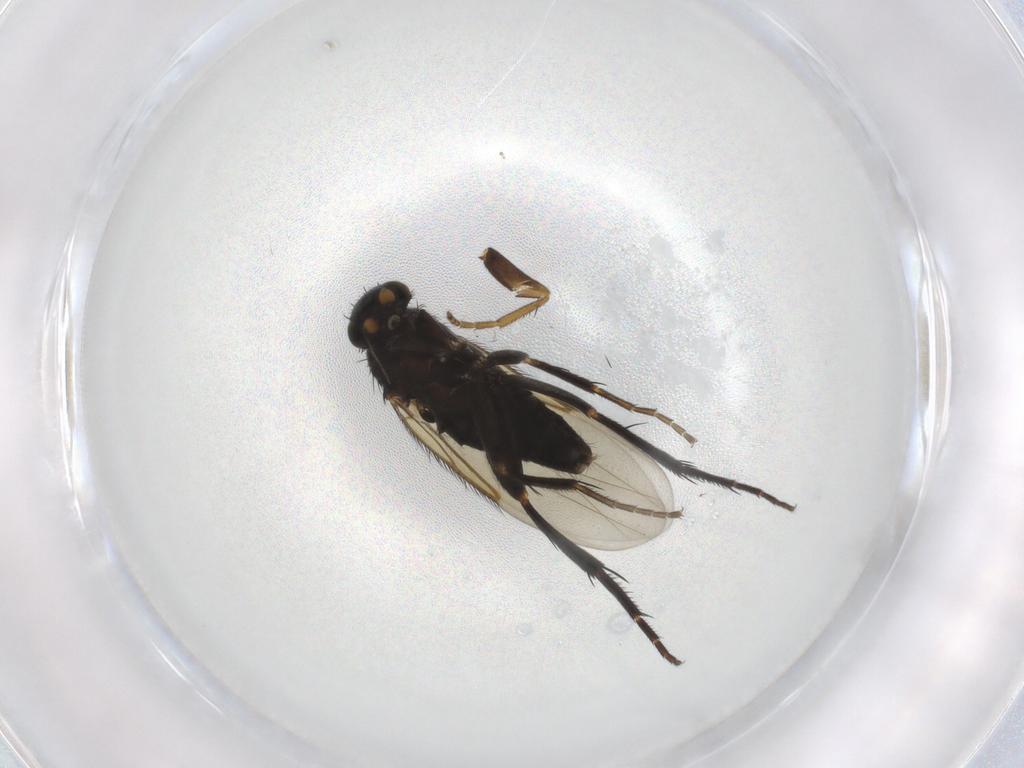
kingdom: Animalia
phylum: Arthropoda
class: Insecta
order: Diptera
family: Phoridae
